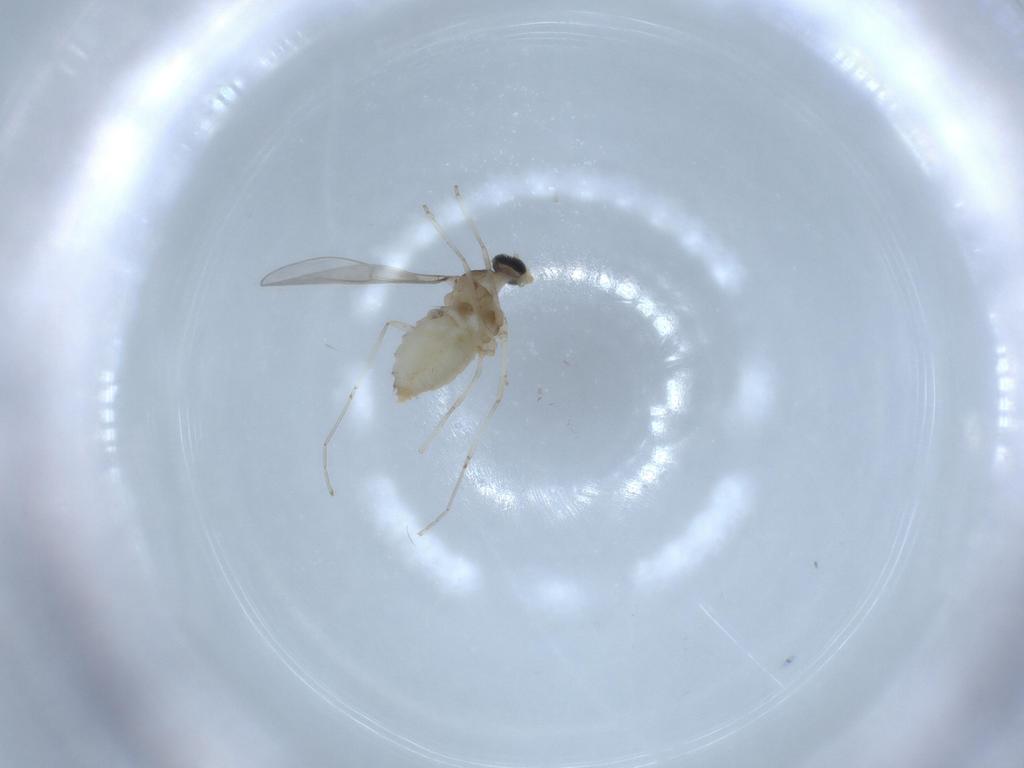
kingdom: Animalia
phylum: Arthropoda
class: Insecta
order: Diptera
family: Cecidomyiidae
